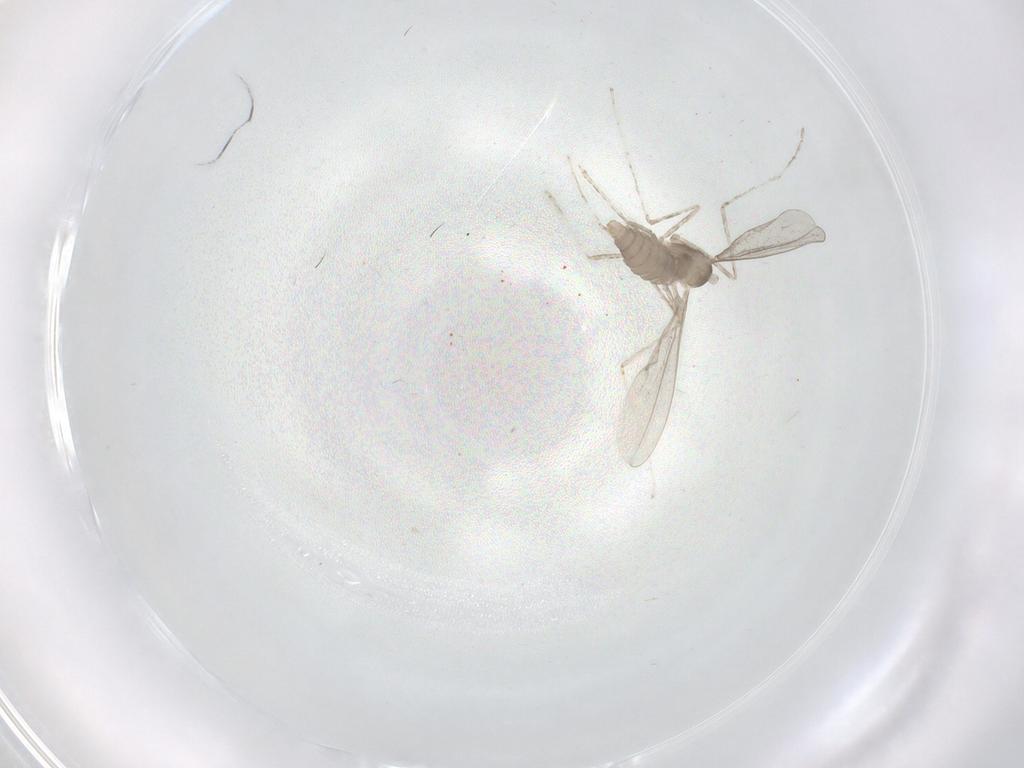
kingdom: Animalia
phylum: Arthropoda
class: Insecta
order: Diptera
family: Cecidomyiidae
